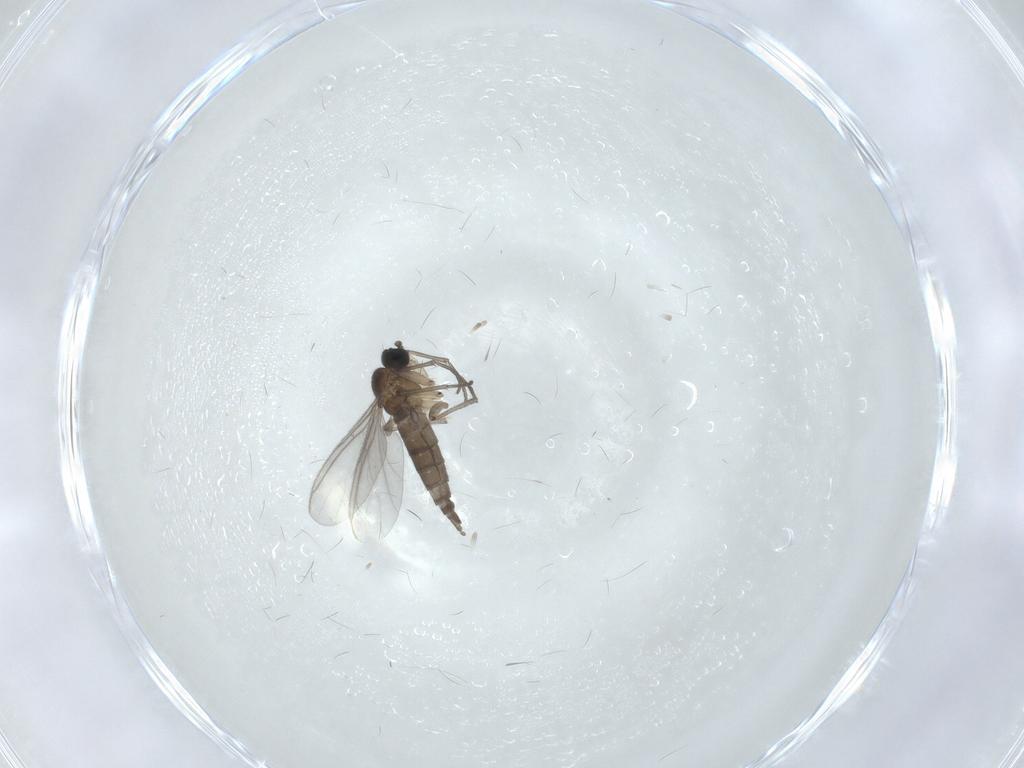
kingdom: Animalia
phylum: Arthropoda
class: Insecta
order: Diptera
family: Sciaridae
